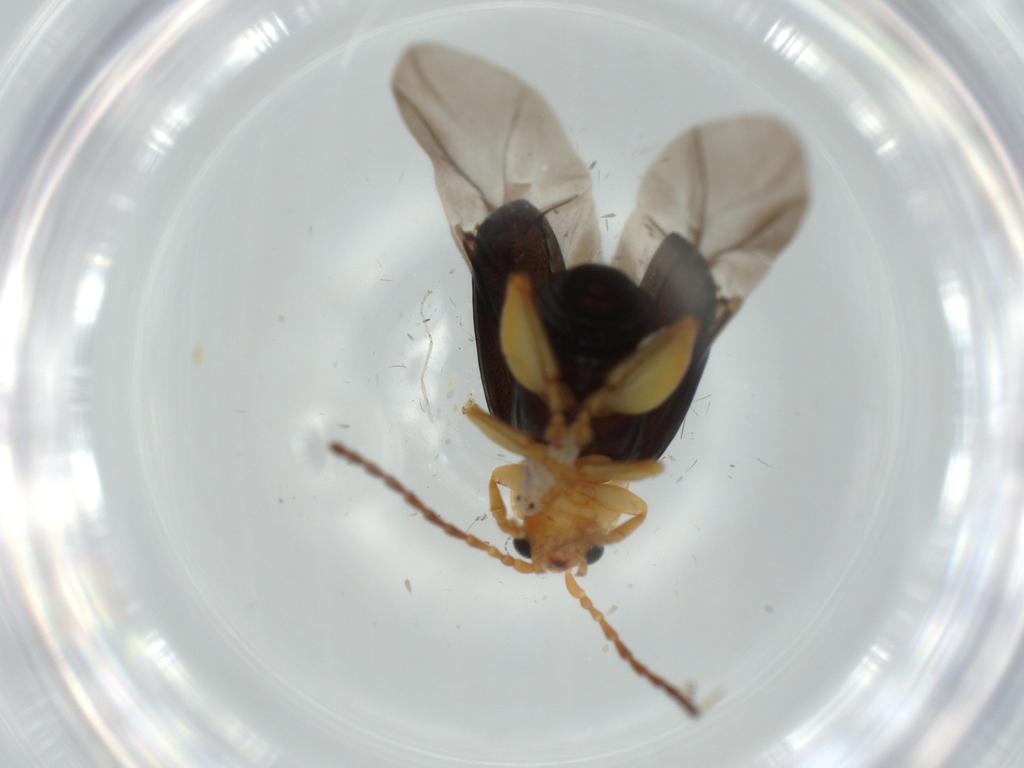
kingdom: Animalia
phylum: Arthropoda
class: Insecta
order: Coleoptera
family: Chrysomelidae
